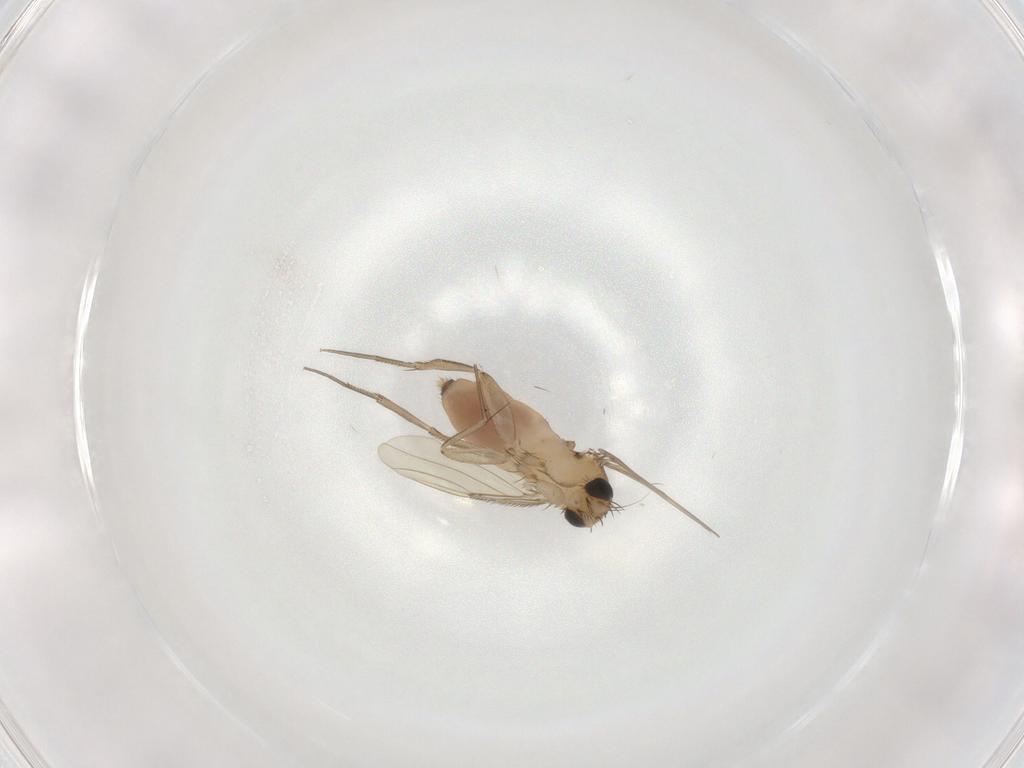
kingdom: Animalia
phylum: Arthropoda
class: Insecta
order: Diptera
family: Phoridae
